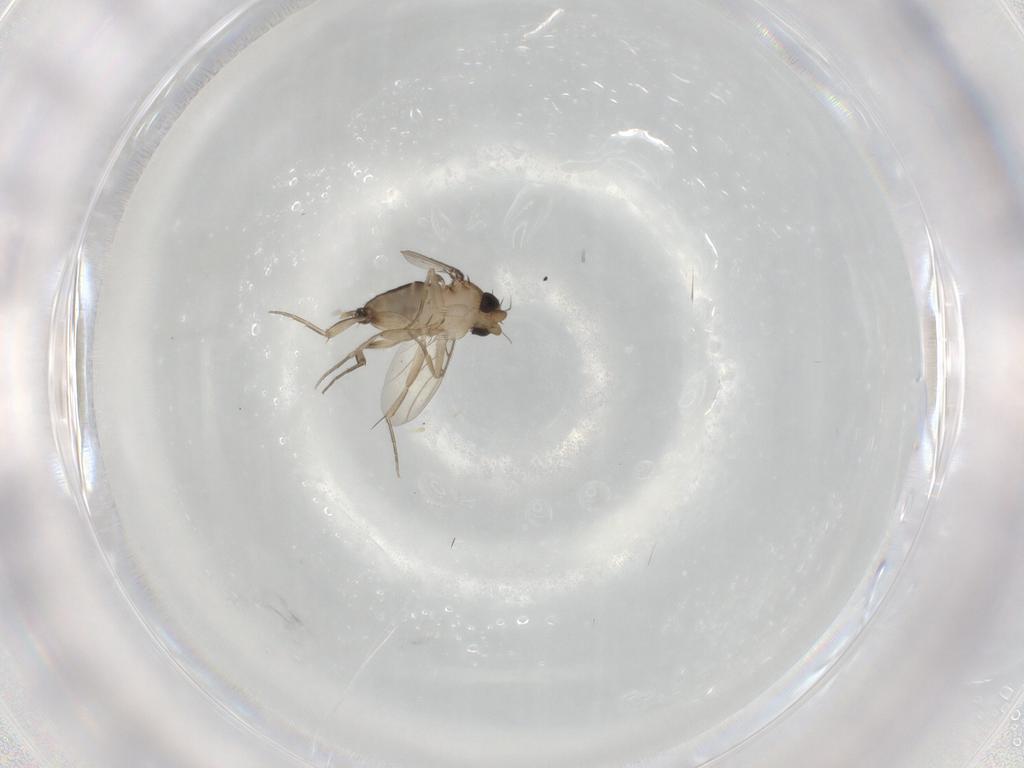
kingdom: Animalia
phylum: Arthropoda
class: Insecta
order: Diptera
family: Phoridae
